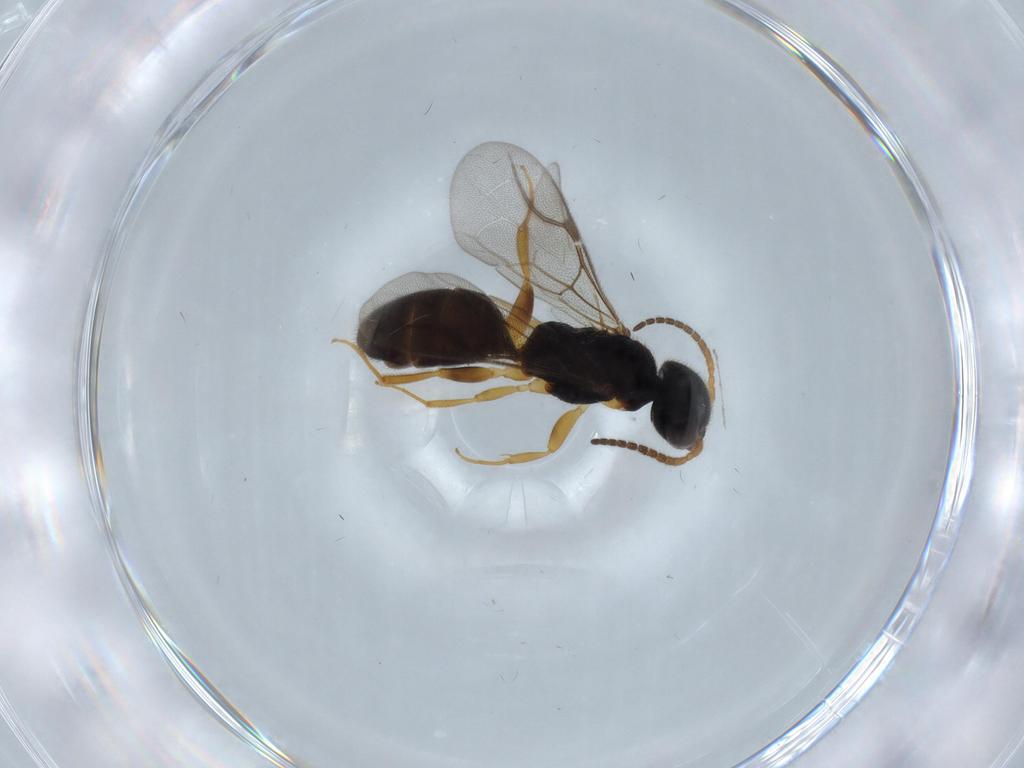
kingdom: Animalia
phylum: Arthropoda
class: Insecta
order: Hymenoptera
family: Bethylidae
